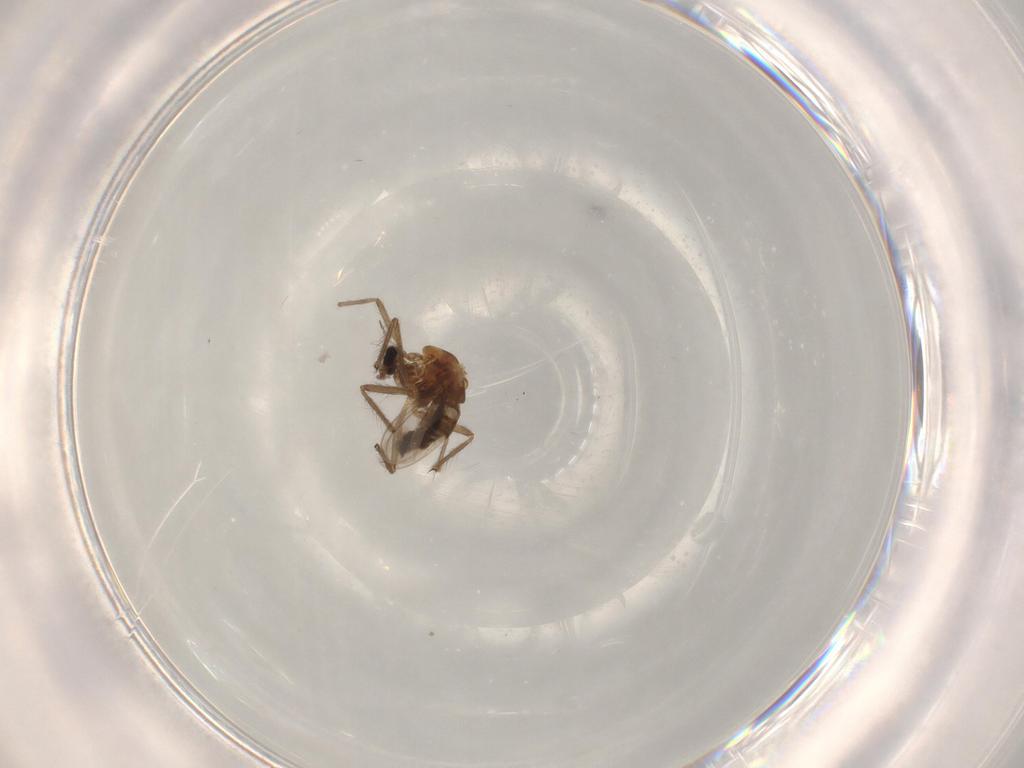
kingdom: Animalia
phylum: Arthropoda
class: Insecta
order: Diptera
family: Chironomidae
